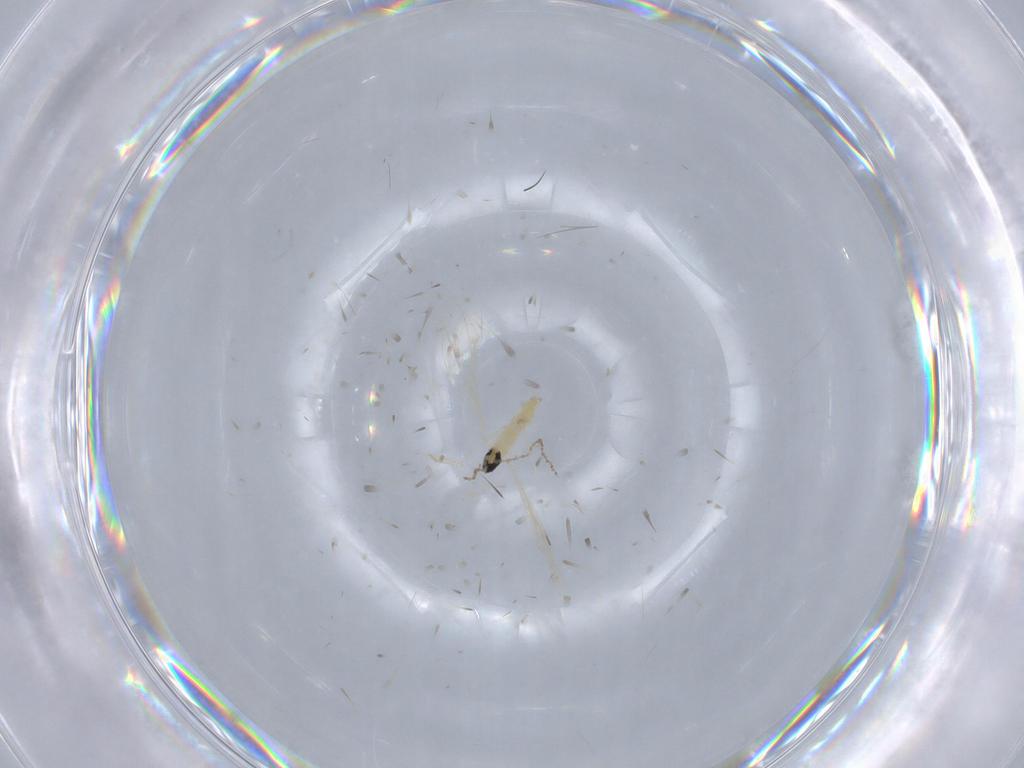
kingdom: Animalia
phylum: Arthropoda
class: Insecta
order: Diptera
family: Cecidomyiidae
